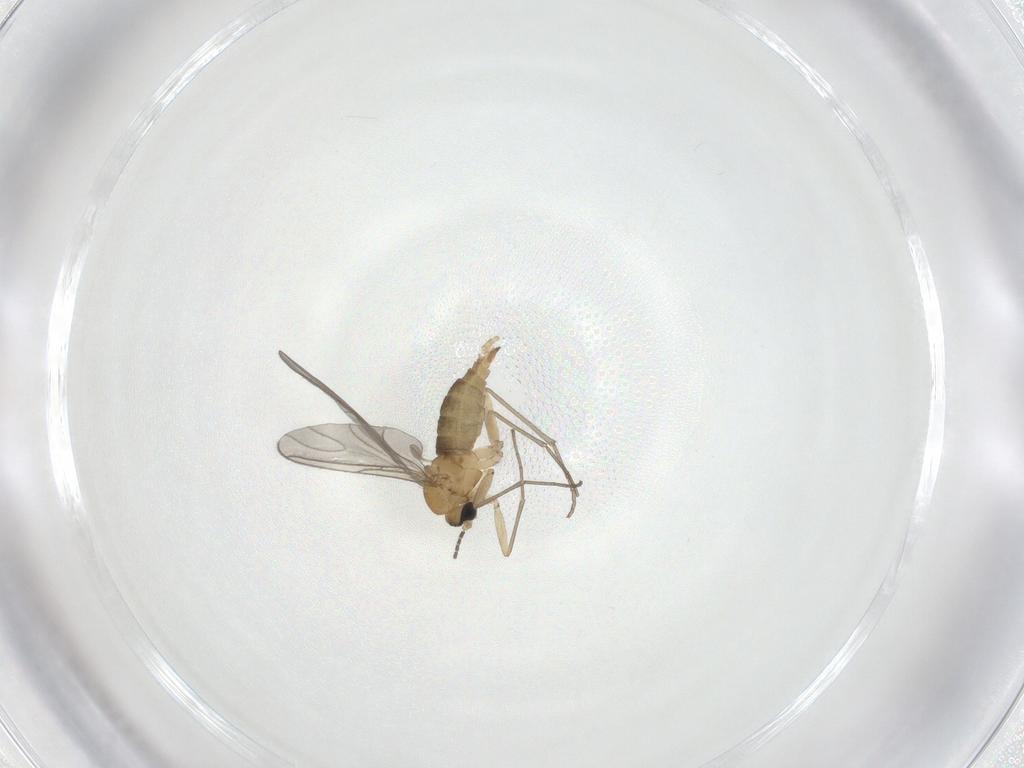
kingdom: Animalia
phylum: Arthropoda
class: Insecta
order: Diptera
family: Sciaridae
